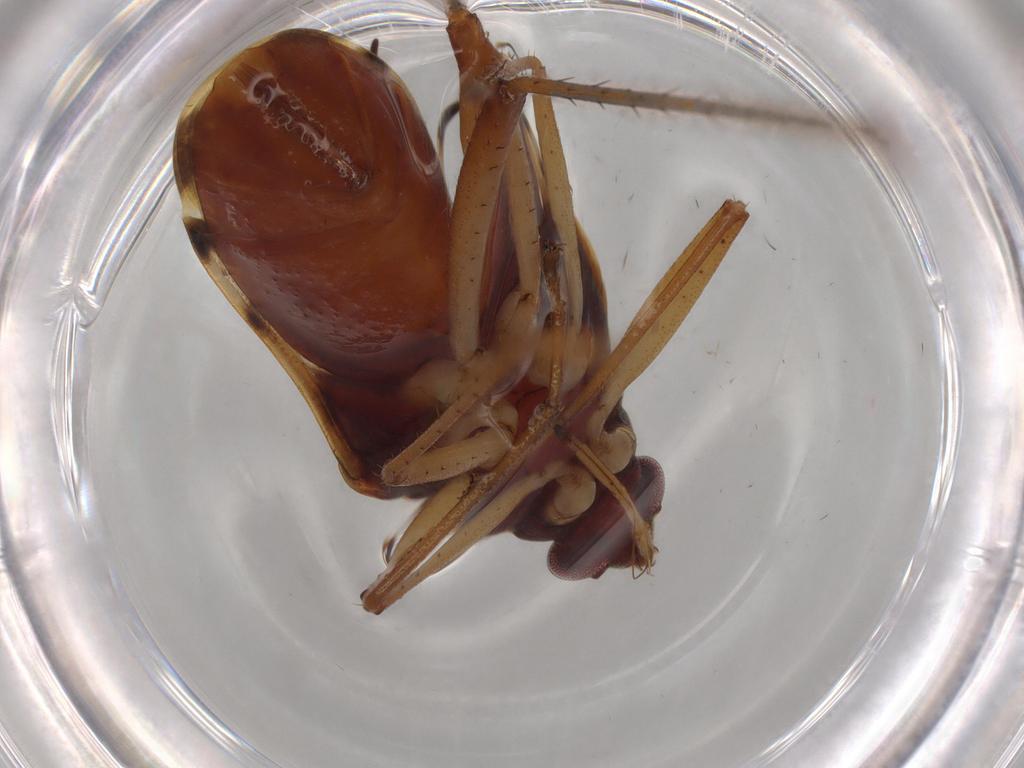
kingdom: Animalia
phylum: Arthropoda
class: Insecta
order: Hemiptera
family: Rhyparochromidae
